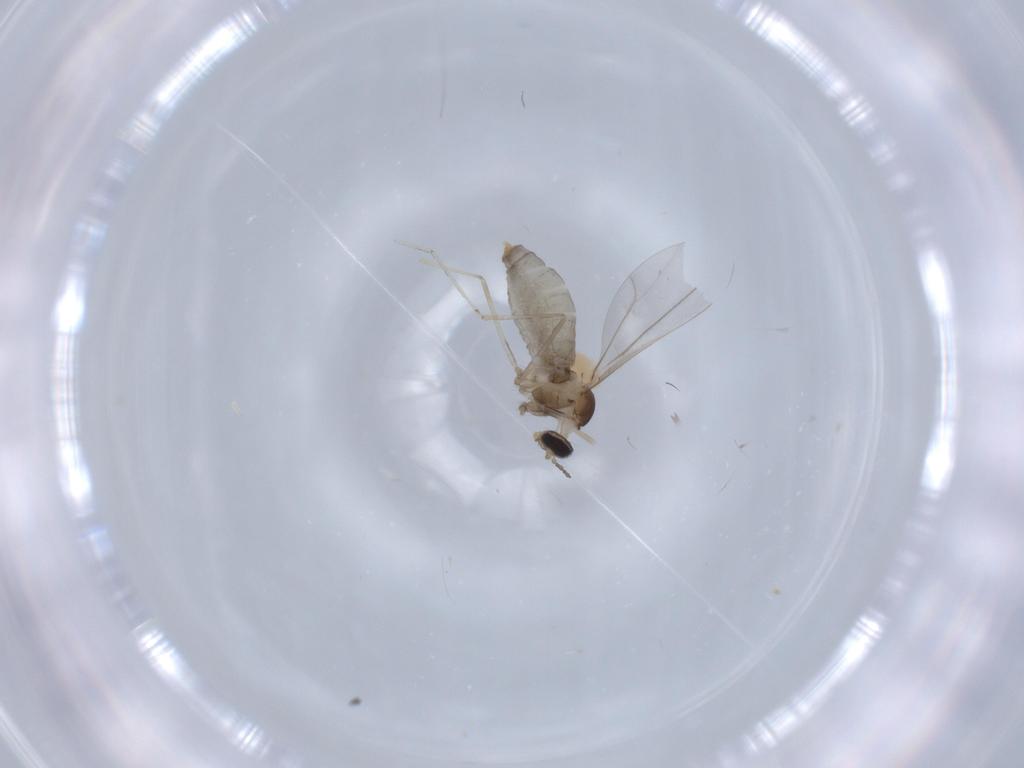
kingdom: Animalia
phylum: Arthropoda
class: Insecta
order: Diptera
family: Cecidomyiidae
